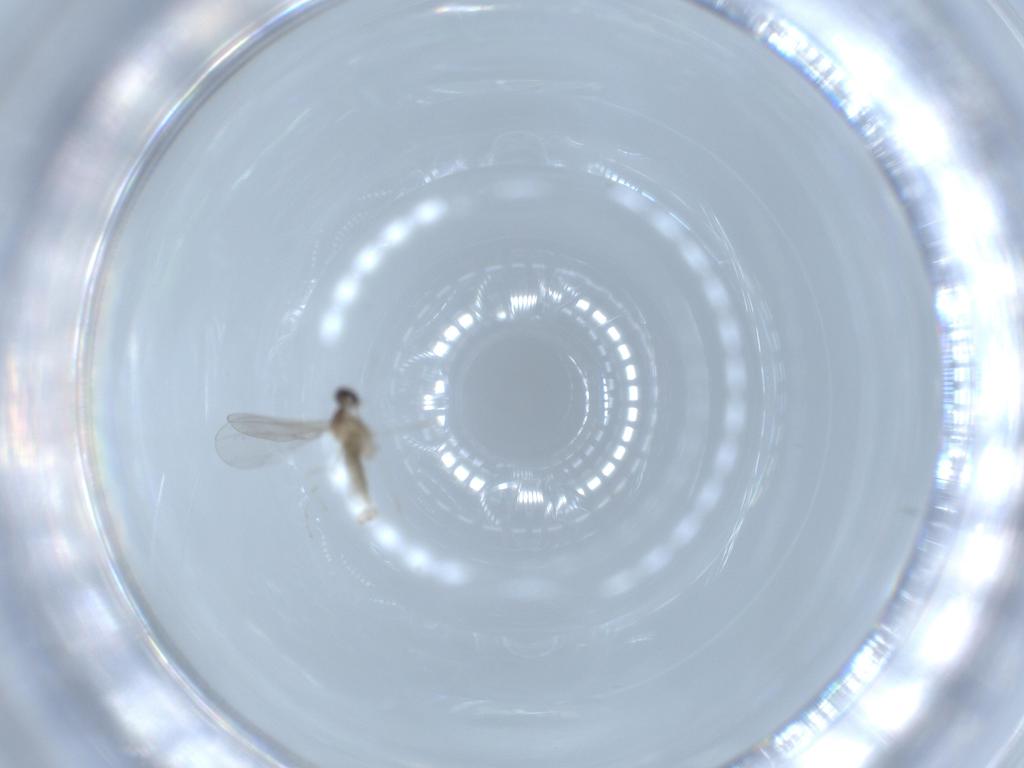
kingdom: Animalia
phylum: Arthropoda
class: Insecta
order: Diptera
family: Cecidomyiidae
